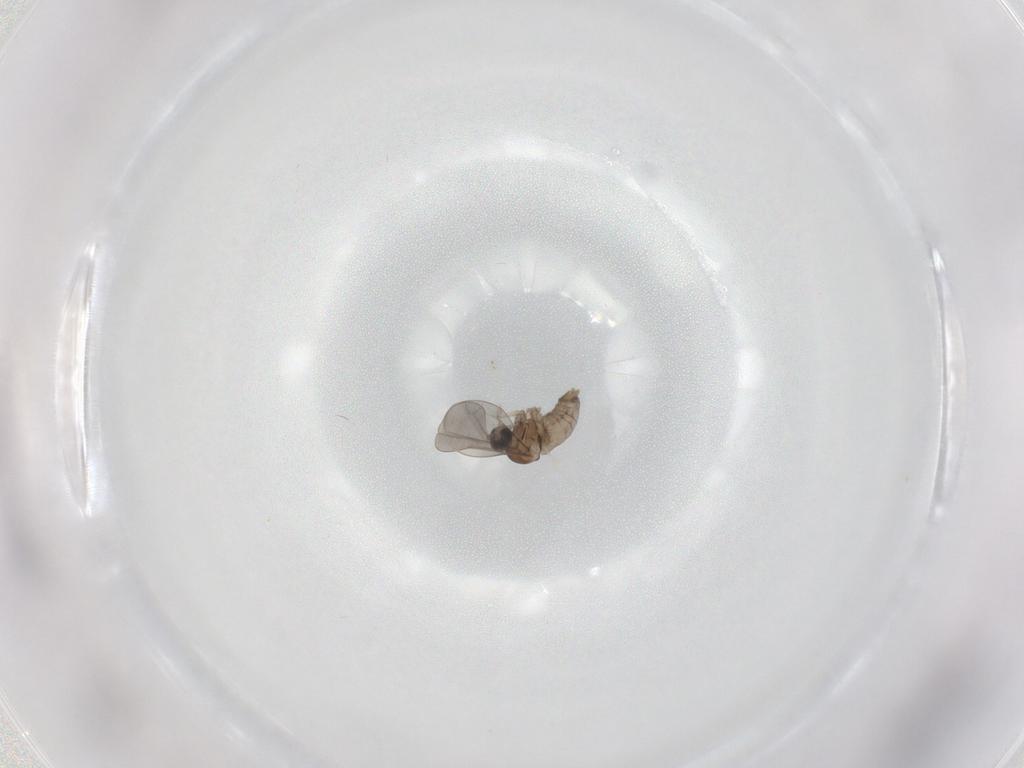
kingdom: Animalia
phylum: Arthropoda
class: Insecta
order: Diptera
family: Cecidomyiidae
